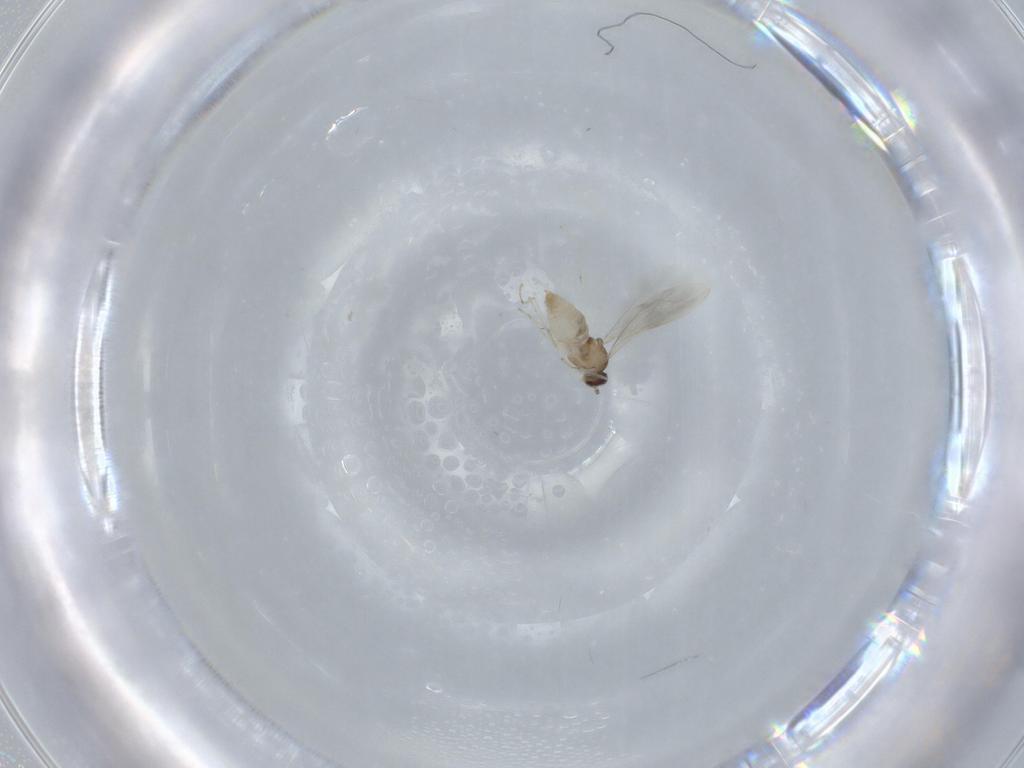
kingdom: Animalia
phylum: Arthropoda
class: Insecta
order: Diptera
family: Cecidomyiidae
